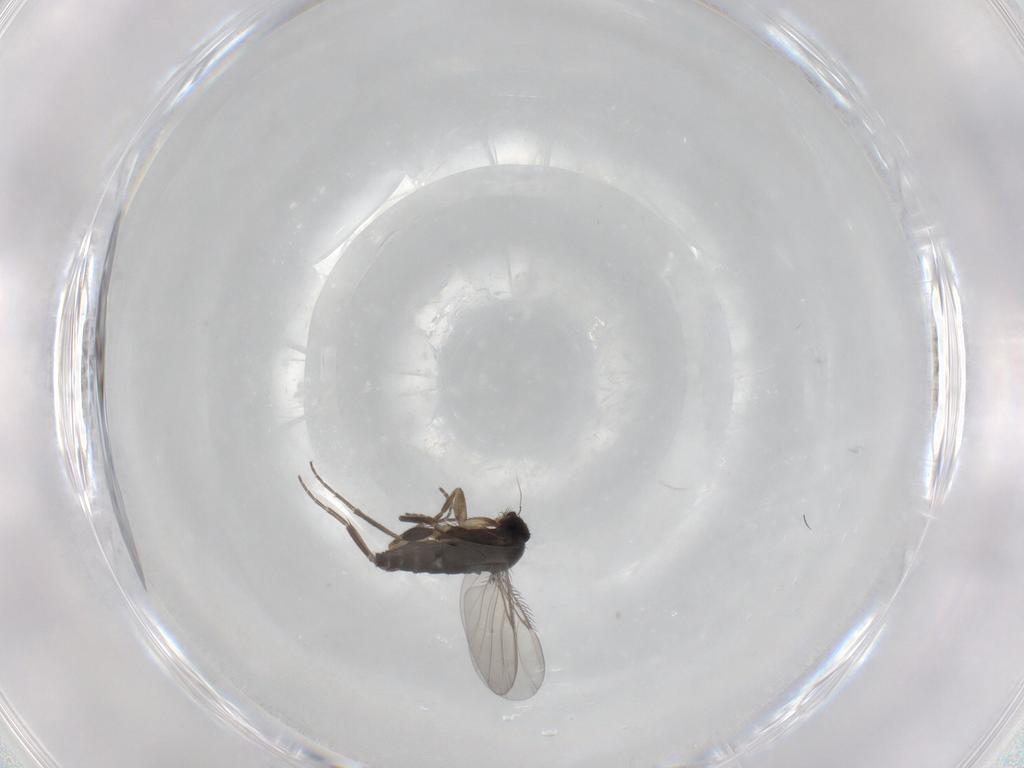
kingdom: Animalia
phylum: Arthropoda
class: Insecta
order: Diptera
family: Phoridae
